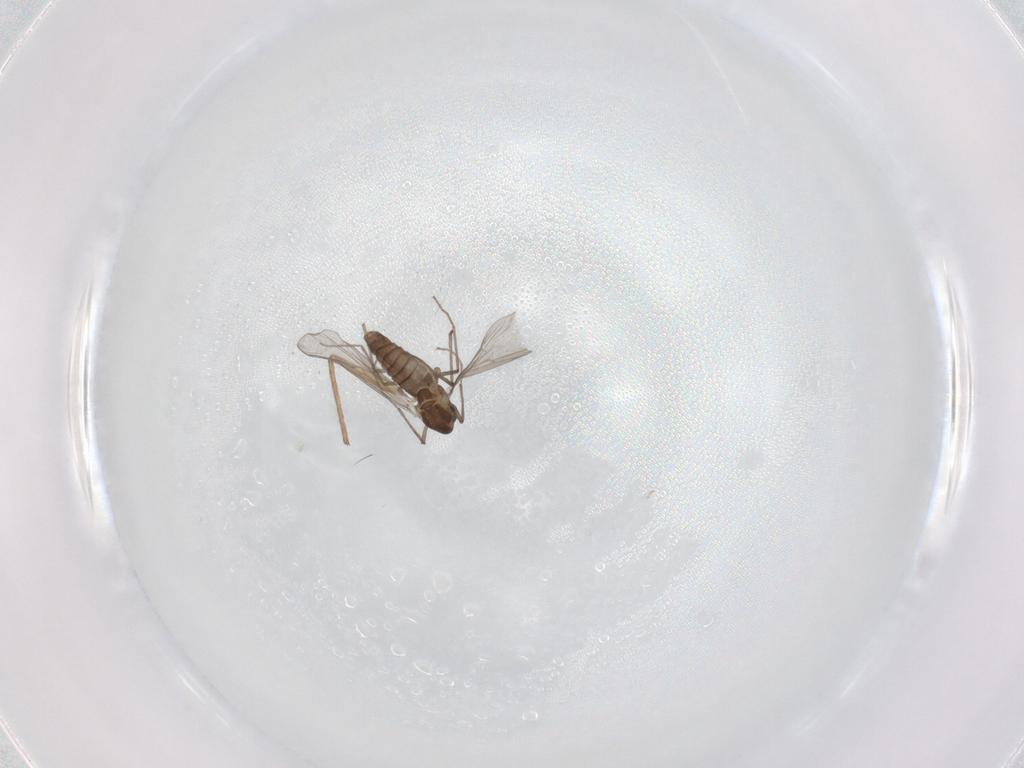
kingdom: Animalia
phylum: Arthropoda
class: Insecta
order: Diptera
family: Chironomidae
